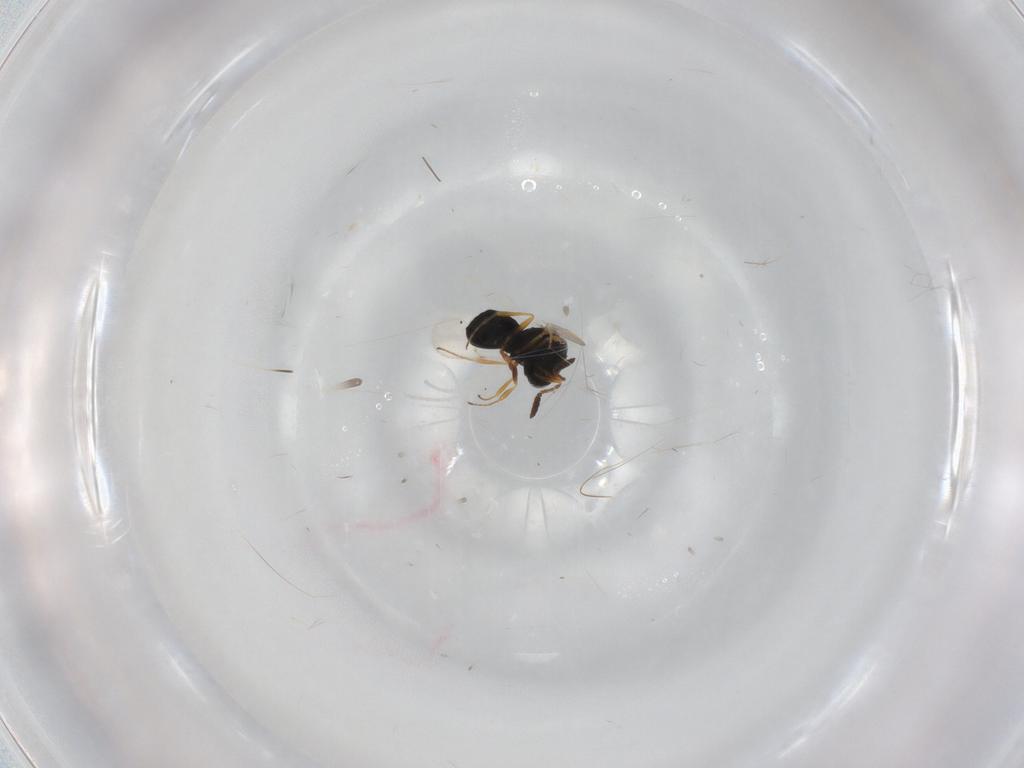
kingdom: Animalia
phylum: Arthropoda
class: Insecta
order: Hymenoptera
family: Scelionidae
